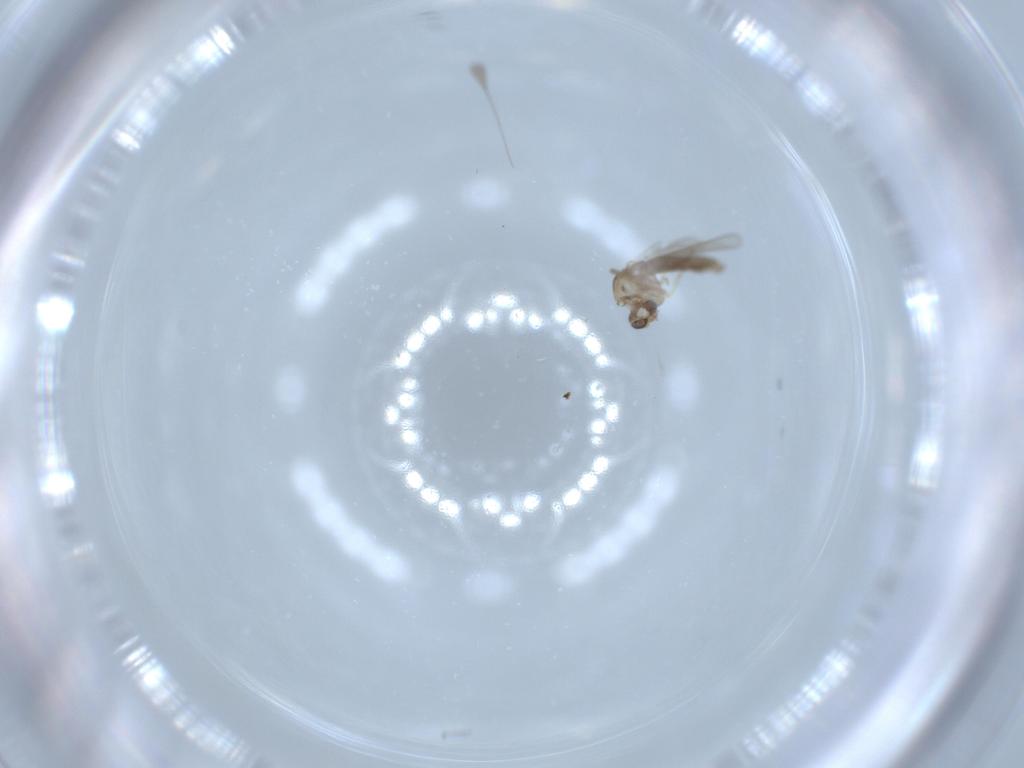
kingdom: Animalia
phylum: Arthropoda
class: Insecta
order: Diptera
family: Chironomidae
